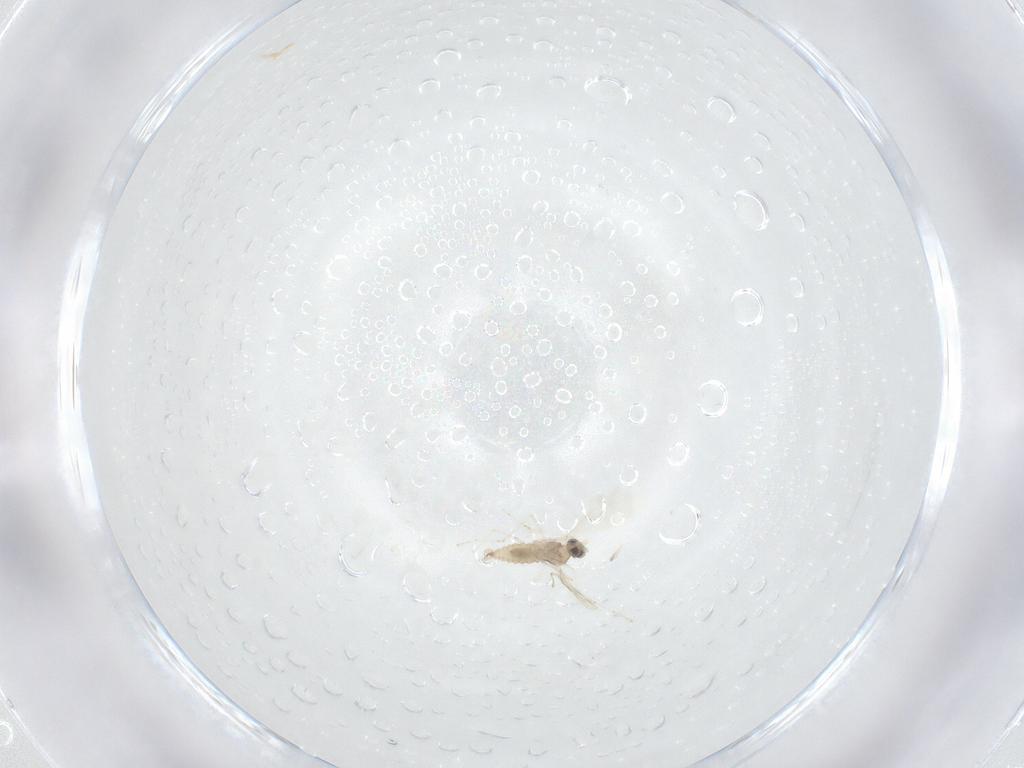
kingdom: Animalia
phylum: Arthropoda
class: Insecta
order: Diptera
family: Cecidomyiidae
